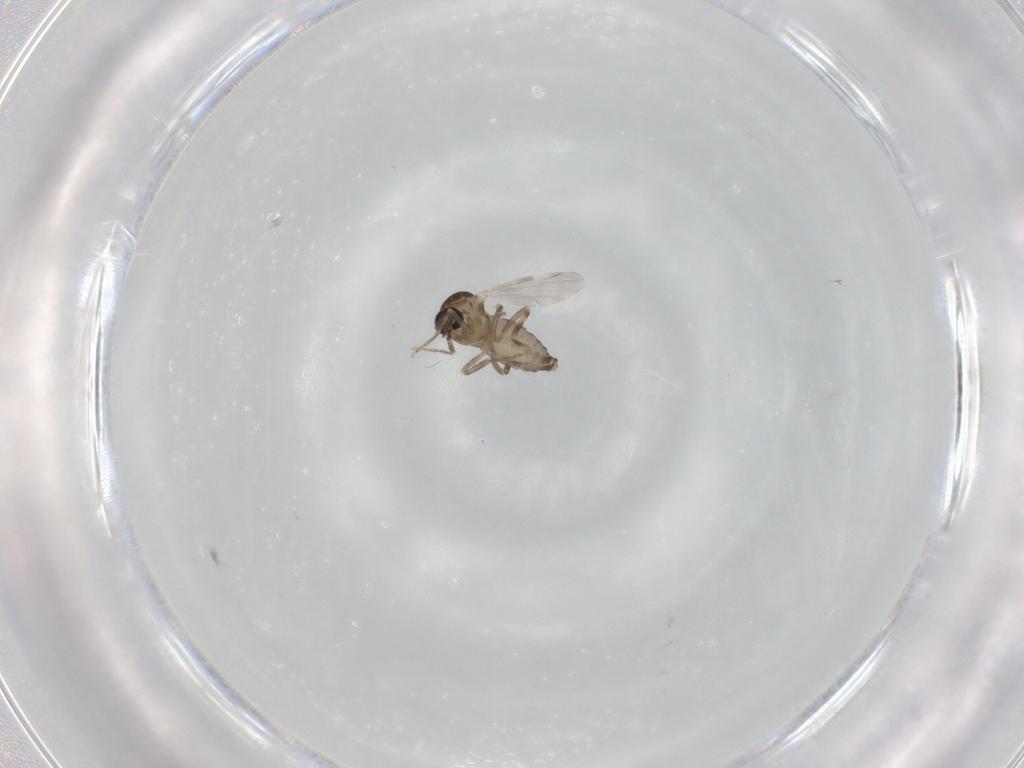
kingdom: Animalia
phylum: Arthropoda
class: Insecta
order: Diptera
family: Ceratopogonidae
